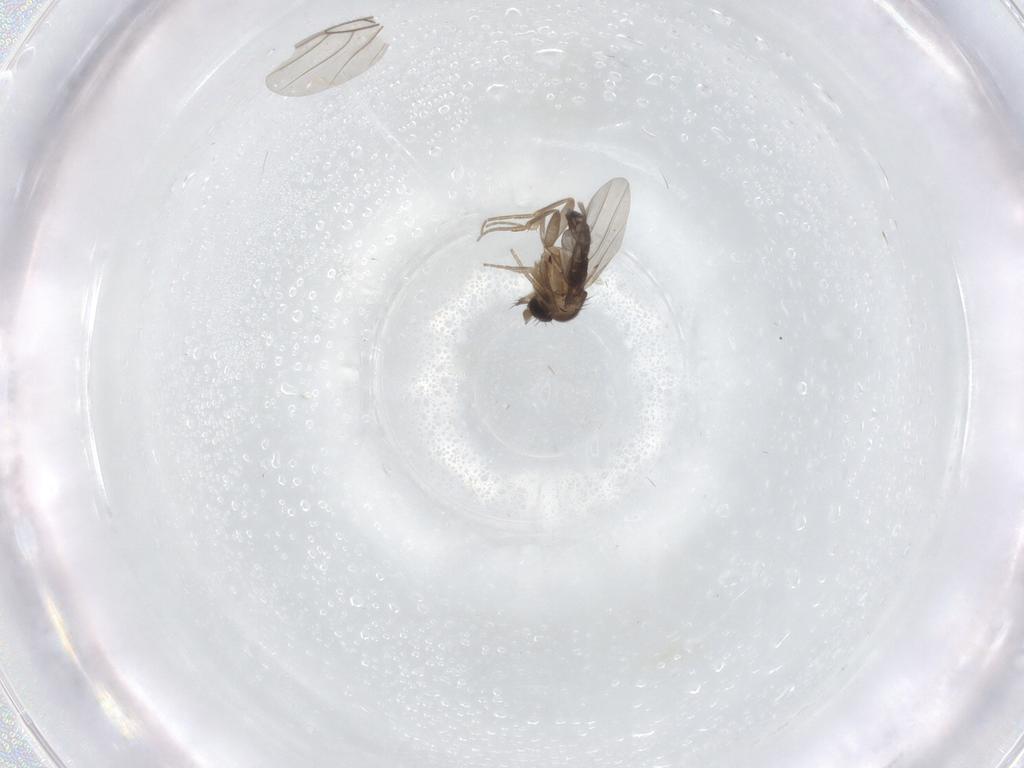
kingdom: Animalia
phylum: Arthropoda
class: Insecta
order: Diptera
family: Phoridae
